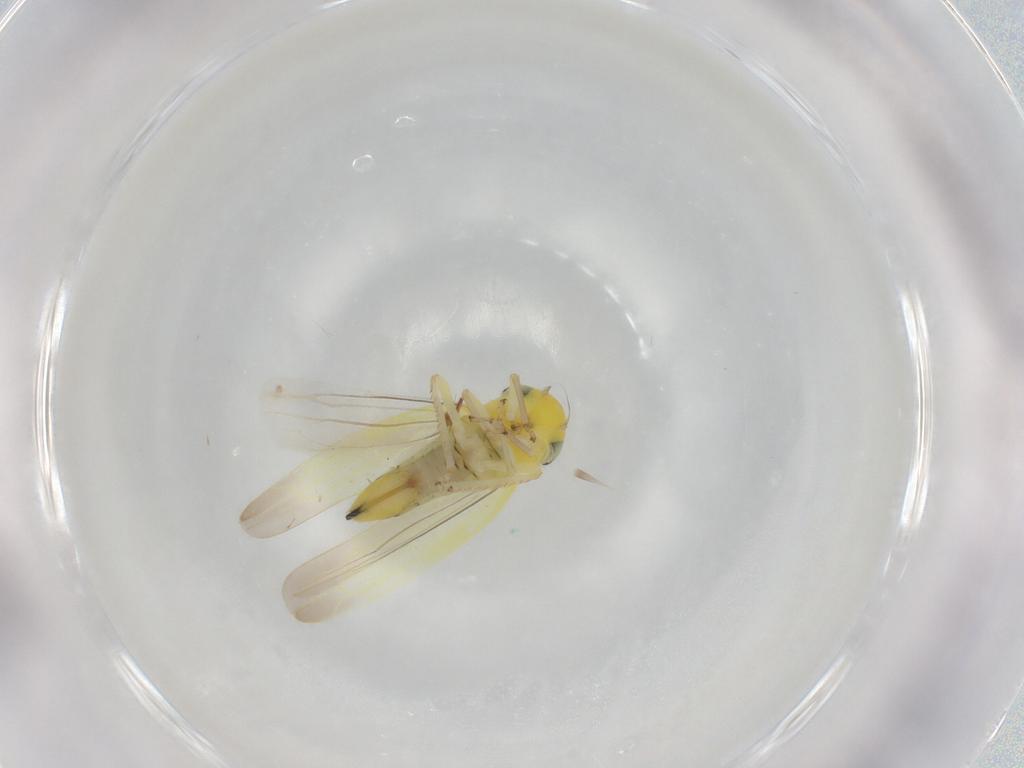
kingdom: Animalia
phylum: Arthropoda
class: Insecta
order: Hemiptera
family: Cicadellidae
